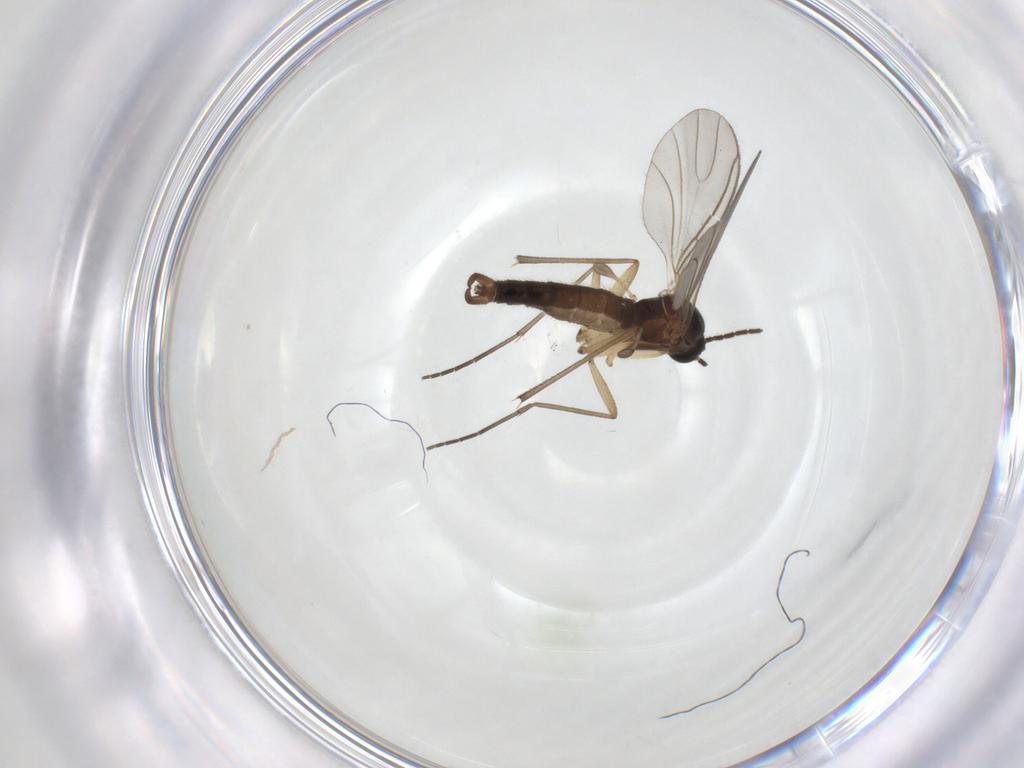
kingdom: Animalia
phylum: Arthropoda
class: Insecta
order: Diptera
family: Sciaridae
